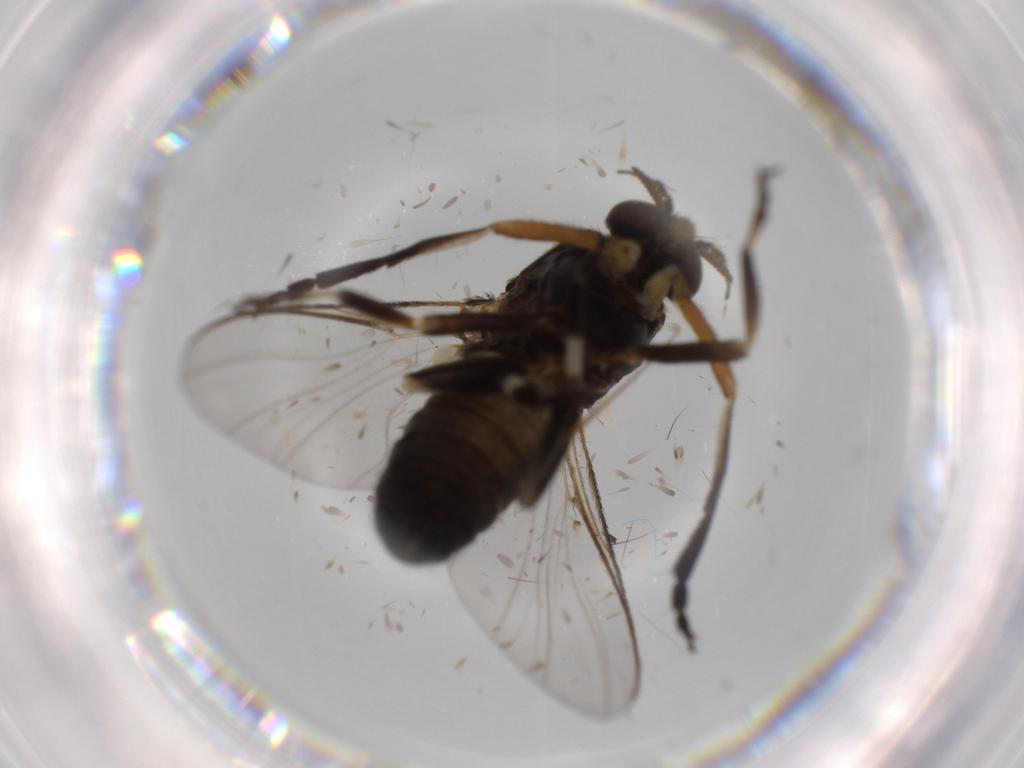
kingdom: Animalia
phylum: Arthropoda
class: Insecta
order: Diptera
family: Cecidomyiidae
